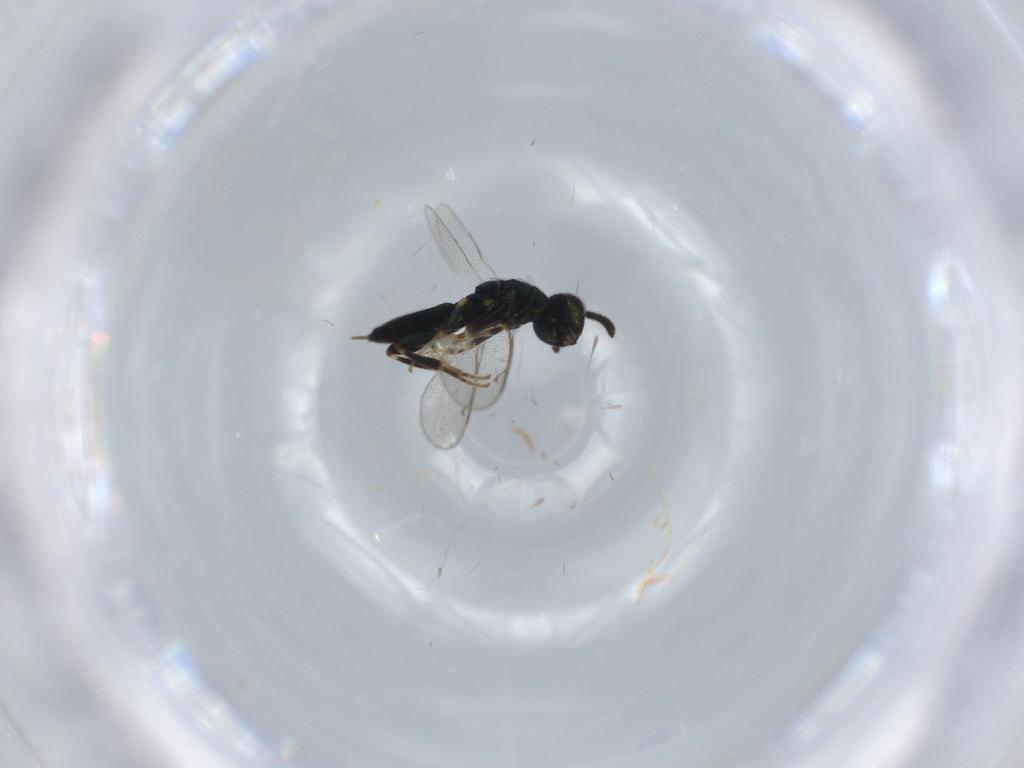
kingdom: Animalia
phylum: Arthropoda
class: Insecta
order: Hymenoptera
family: Cleonyminae
